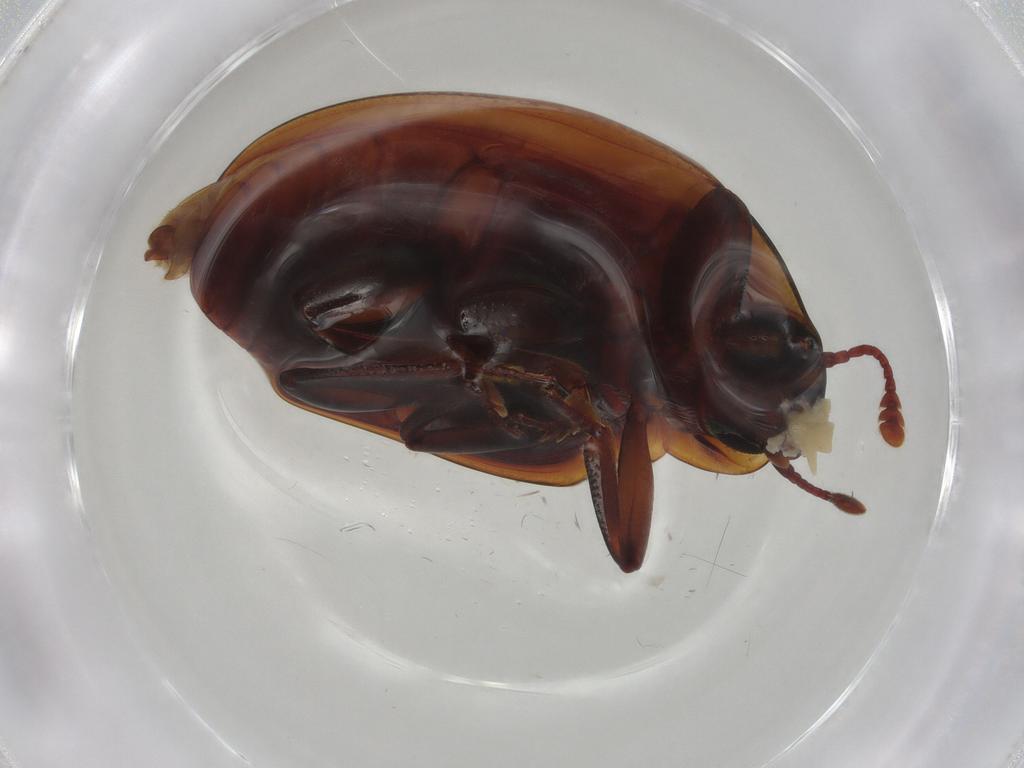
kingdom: Animalia
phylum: Arthropoda
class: Insecta
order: Coleoptera
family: Zopheridae
